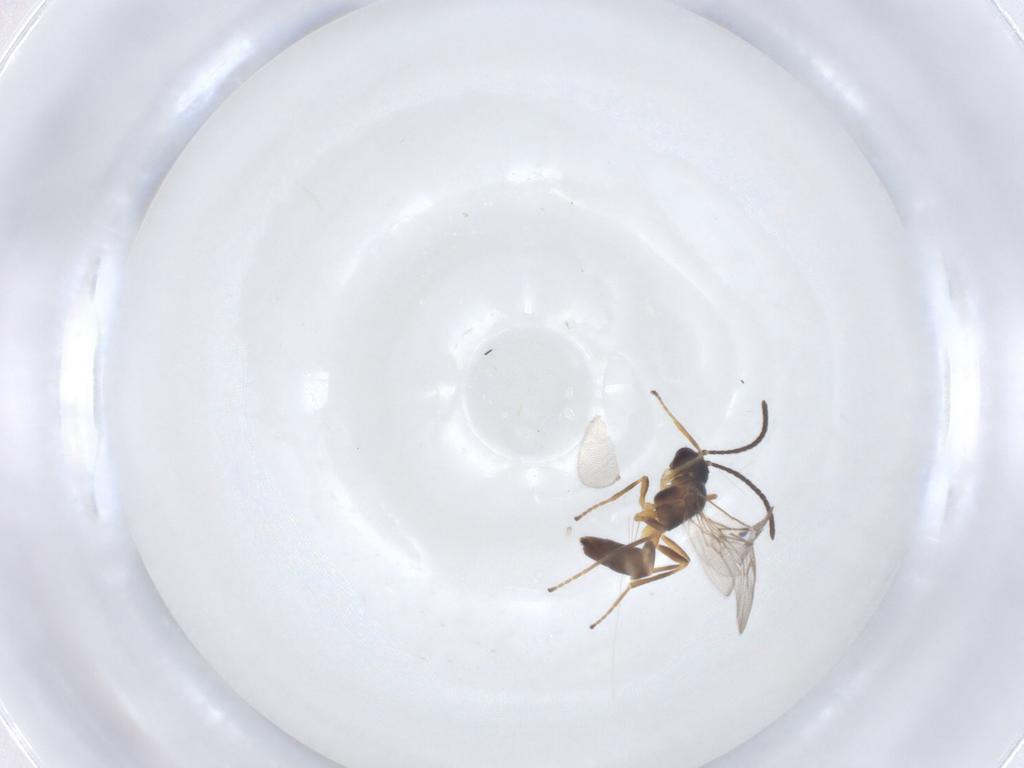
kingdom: Animalia
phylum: Arthropoda
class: Insecta
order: Hymenoptera
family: Braconidae
